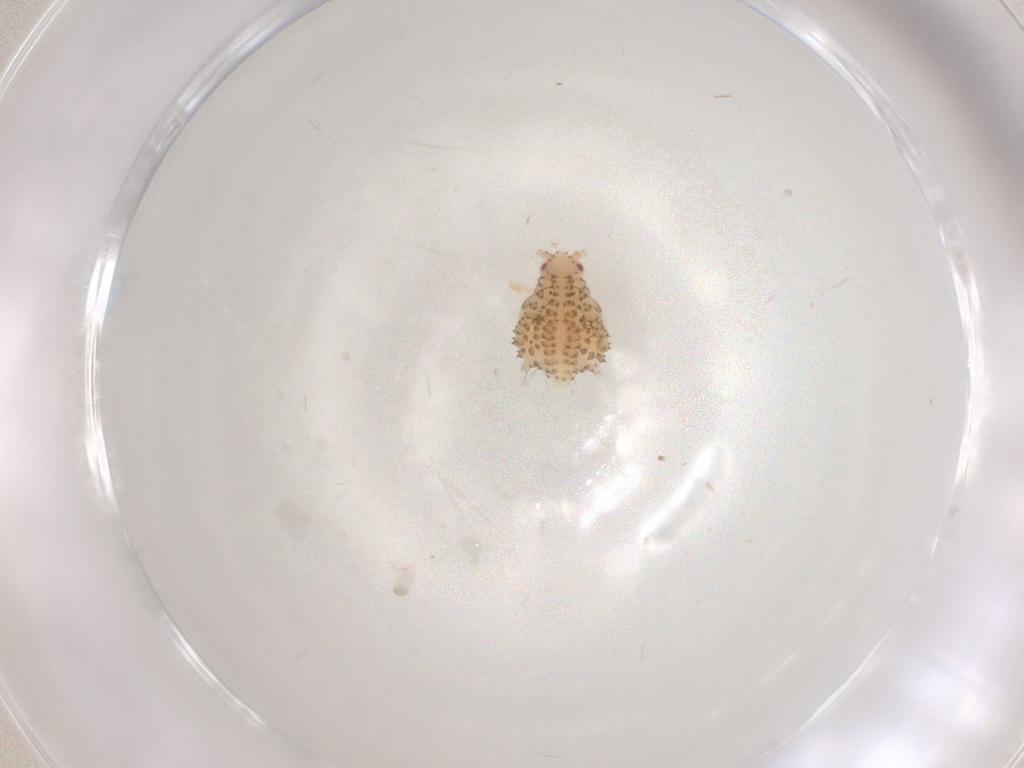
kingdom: Animalia
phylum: Arthropoda
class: Insecta
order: Hemiptera
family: Aphididae
